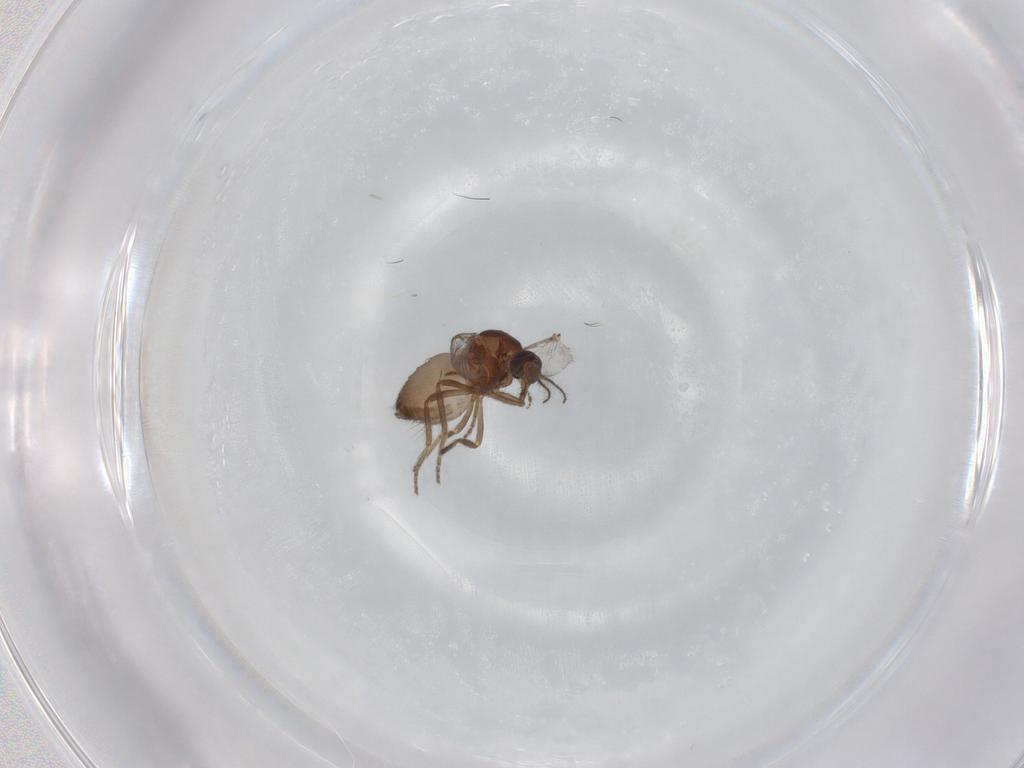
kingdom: Animalia
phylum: Arthropoda
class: Insecta
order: Diptera
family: Ceratopogonidae
